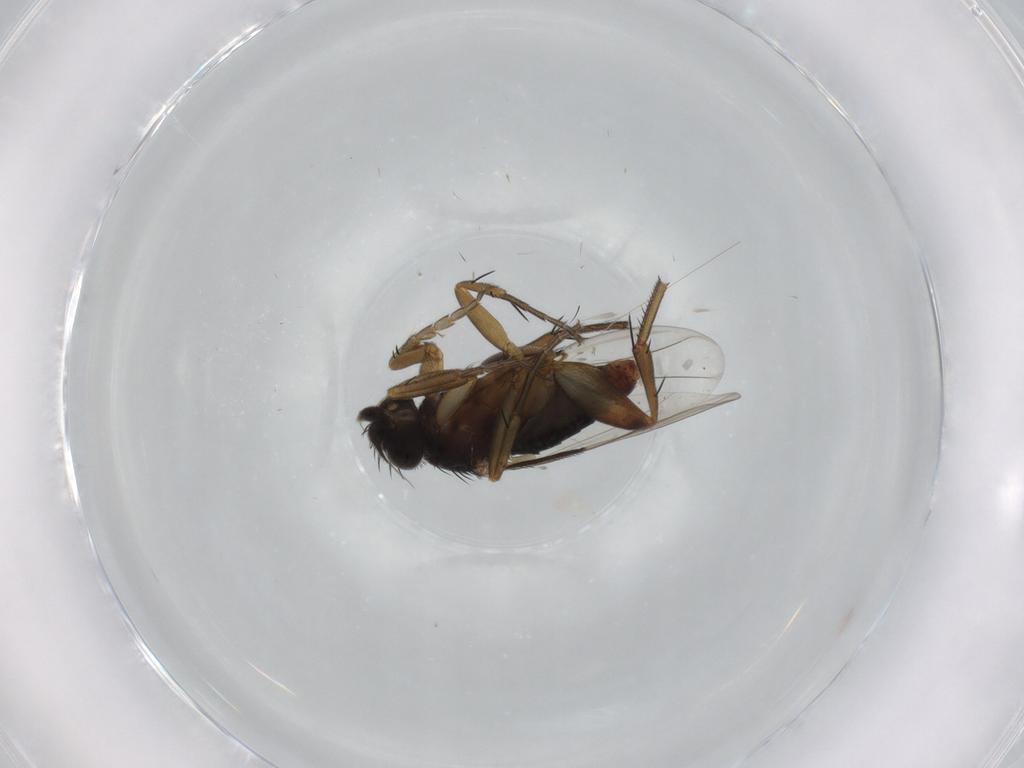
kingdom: Animalia
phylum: Arthropoda
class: Insecta
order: Diptera
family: Phoridae
